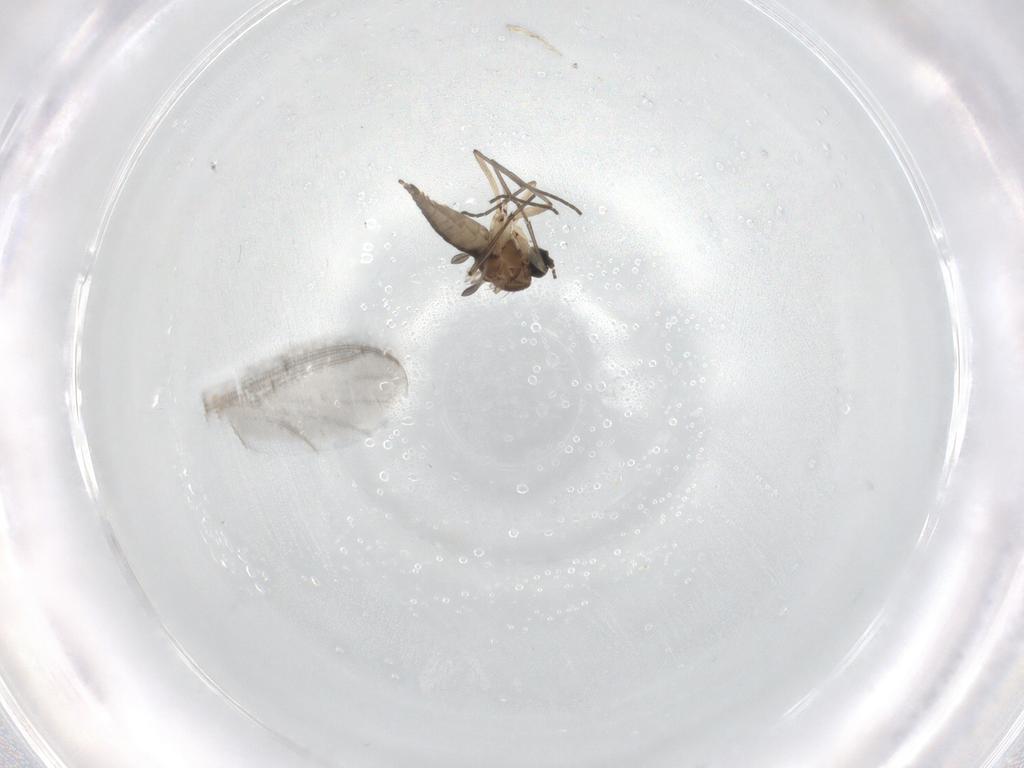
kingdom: Animalia
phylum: Arthropoda
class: Insecta
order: Diptera
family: Sciaridae
